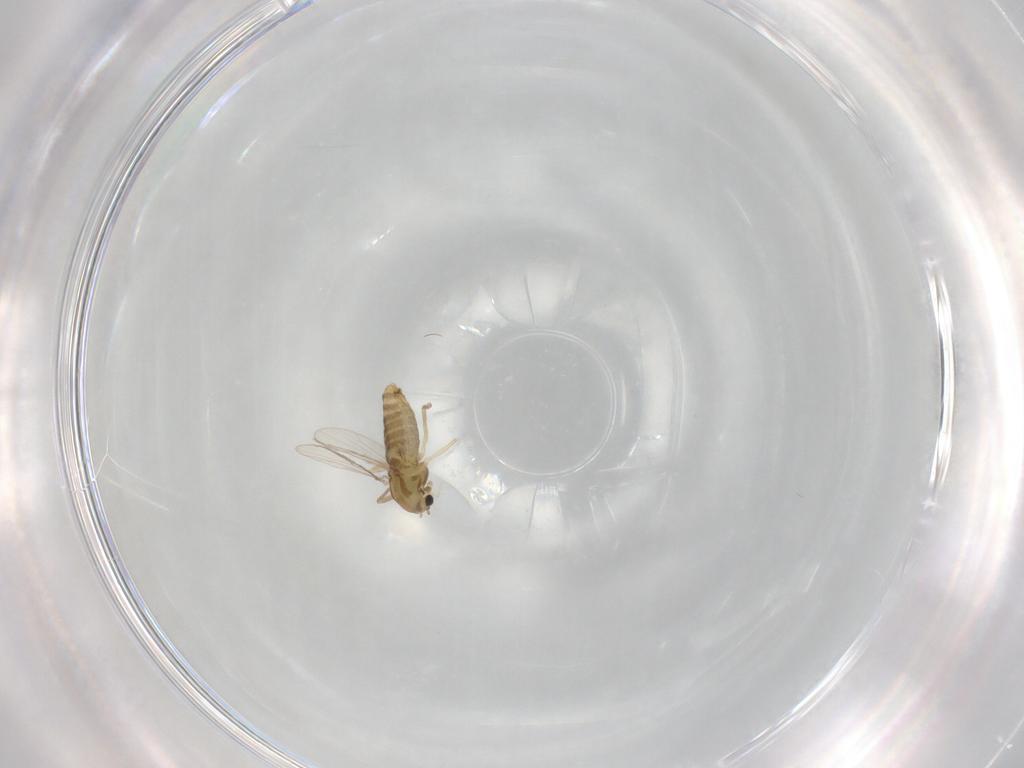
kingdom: Animalia
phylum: Arthropoda
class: Insecta
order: Diptera
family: Chironomidae
